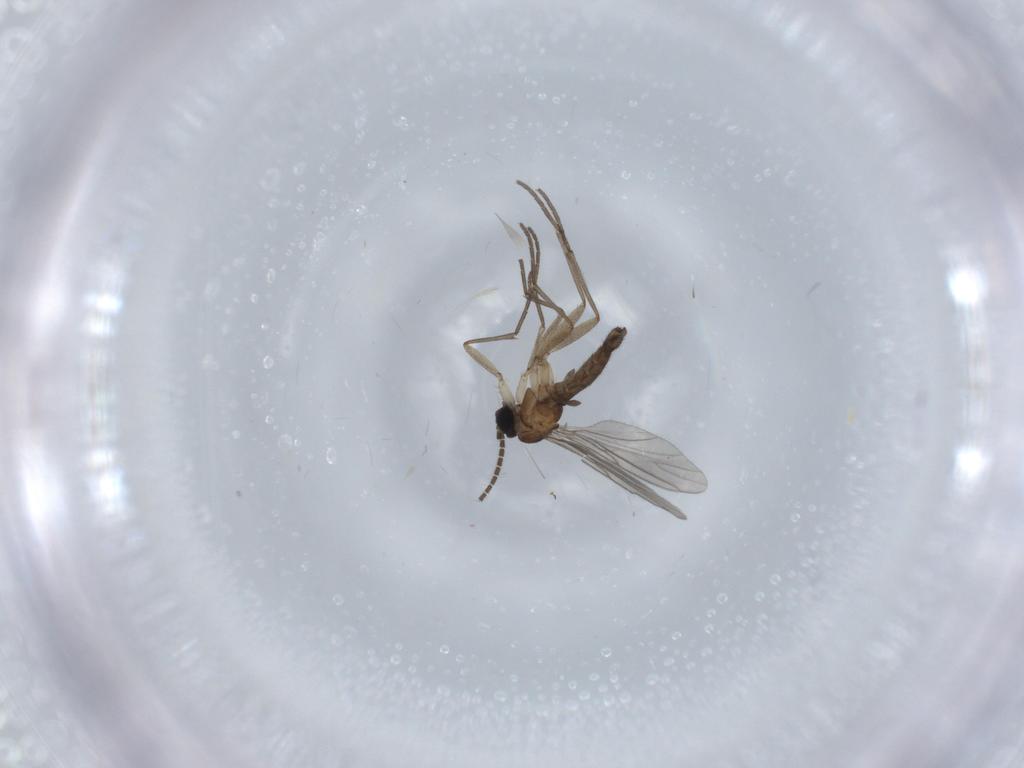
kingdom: Animalia
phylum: Arthropoda
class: Insecta
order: Diptera
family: Sciaridae
